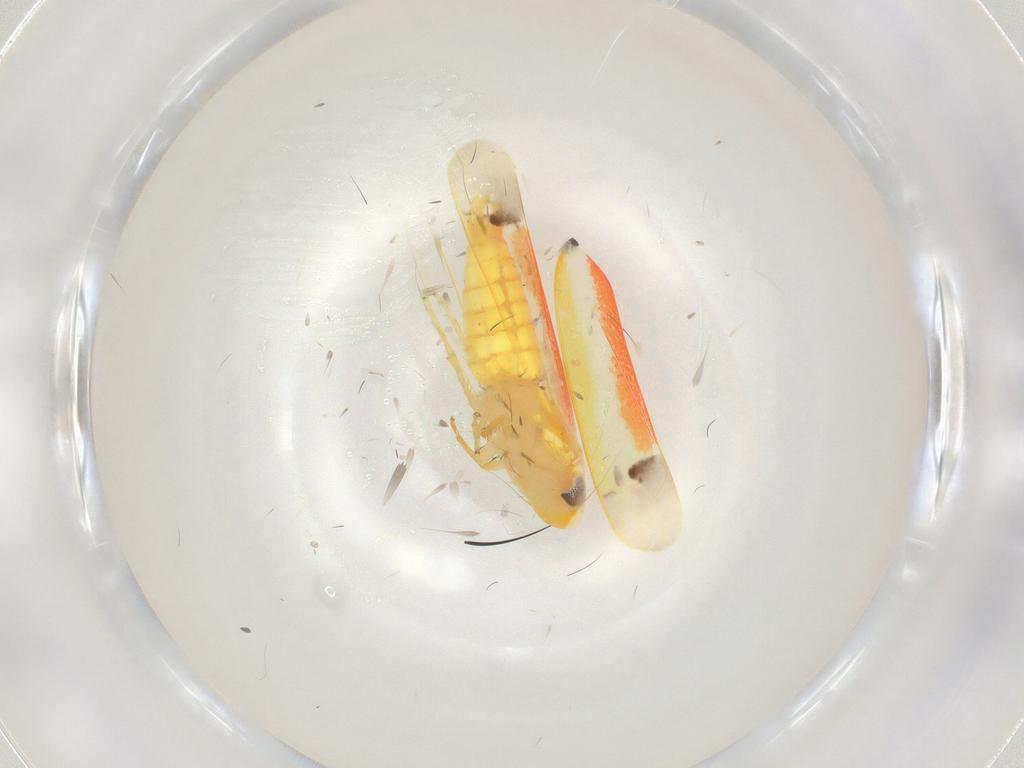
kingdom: Animalia
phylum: Arthropoda
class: Insecta
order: Hemiptera
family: Cicadellidae
